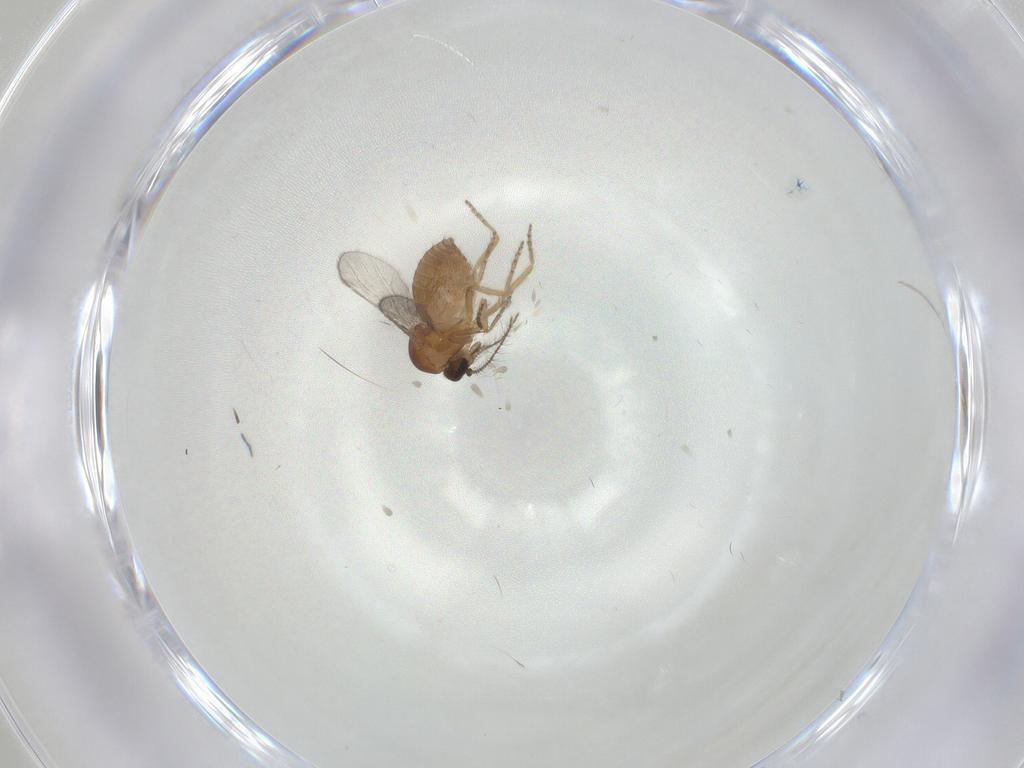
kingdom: Animalia
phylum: Arthropoda
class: Insecta
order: Diptera
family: Ceratopogonidae
